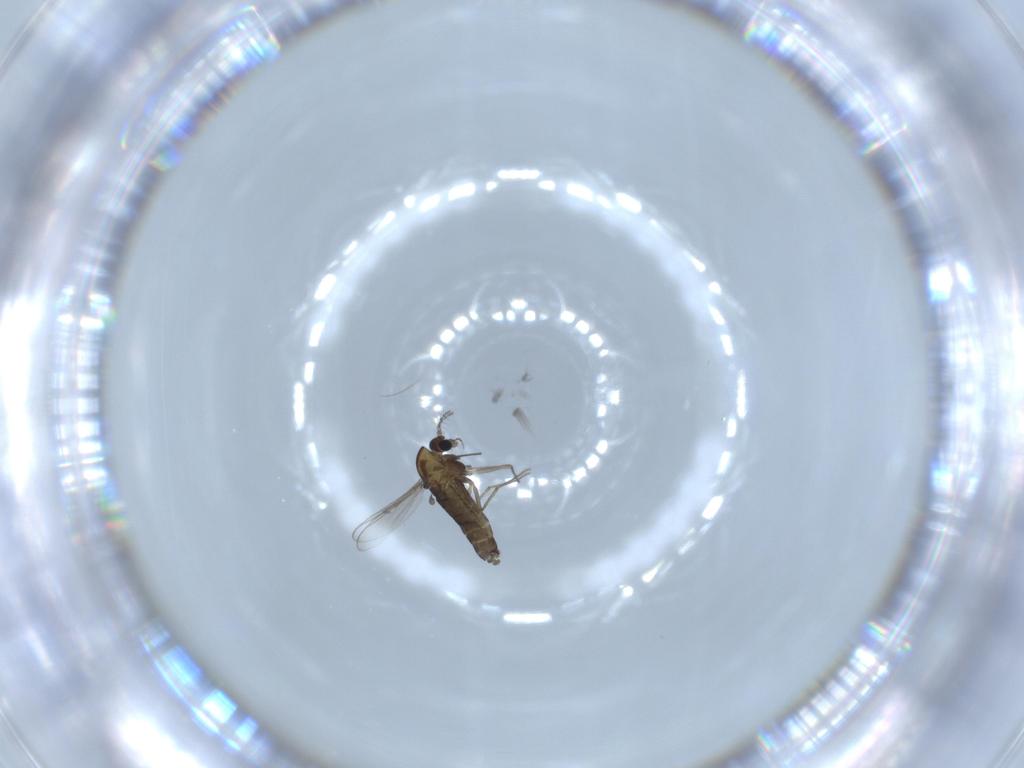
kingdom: Animalia
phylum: Arthropoda
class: Insecta
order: Diptera
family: Chironomidae
